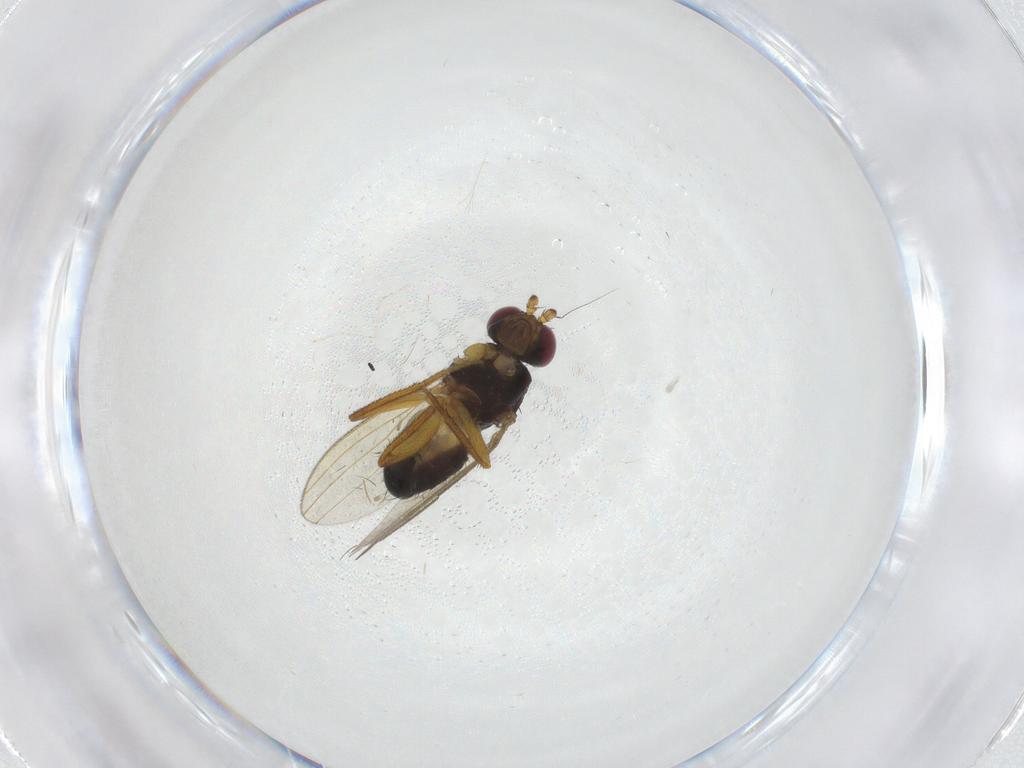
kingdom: Animalia
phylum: Arthropoda
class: Insecta
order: Diptera
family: Pseudopomyzidae
